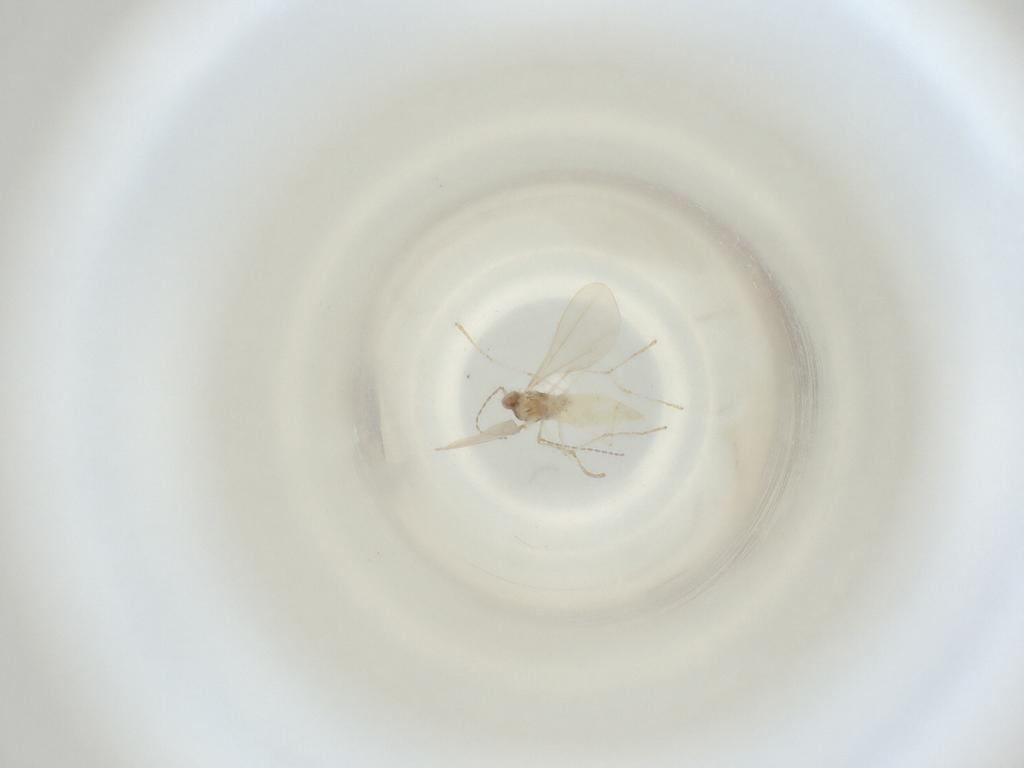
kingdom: Animalia
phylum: Arthropoda
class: Insecta
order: Diptera
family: Cecidomyiidae
